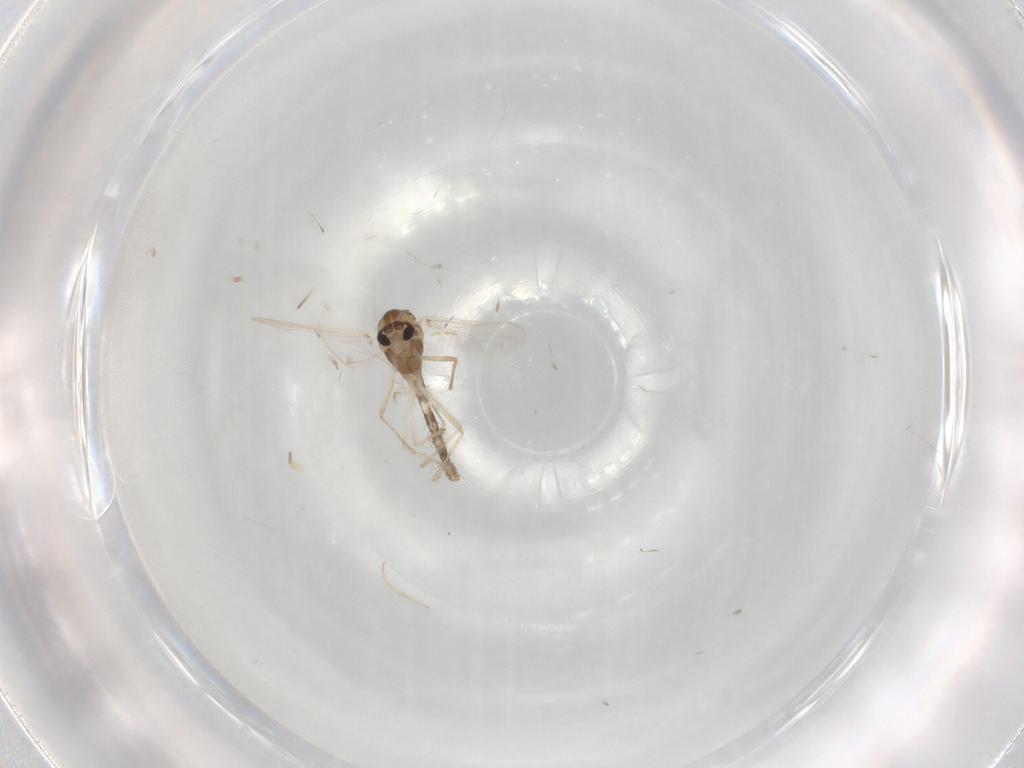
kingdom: Animalia
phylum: Arthropoda
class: Insecta
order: Diptera
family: Chironomidae
